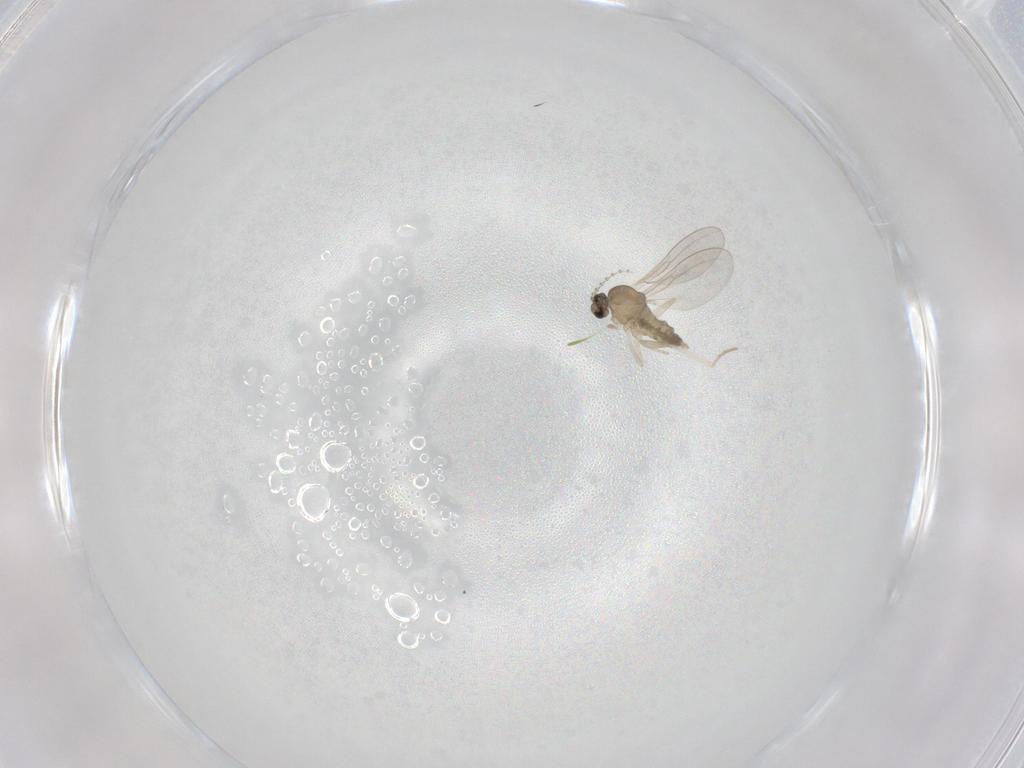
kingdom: Animalia
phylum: Arthropoda
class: Insecta
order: Diptera
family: Cecidomyiidae
